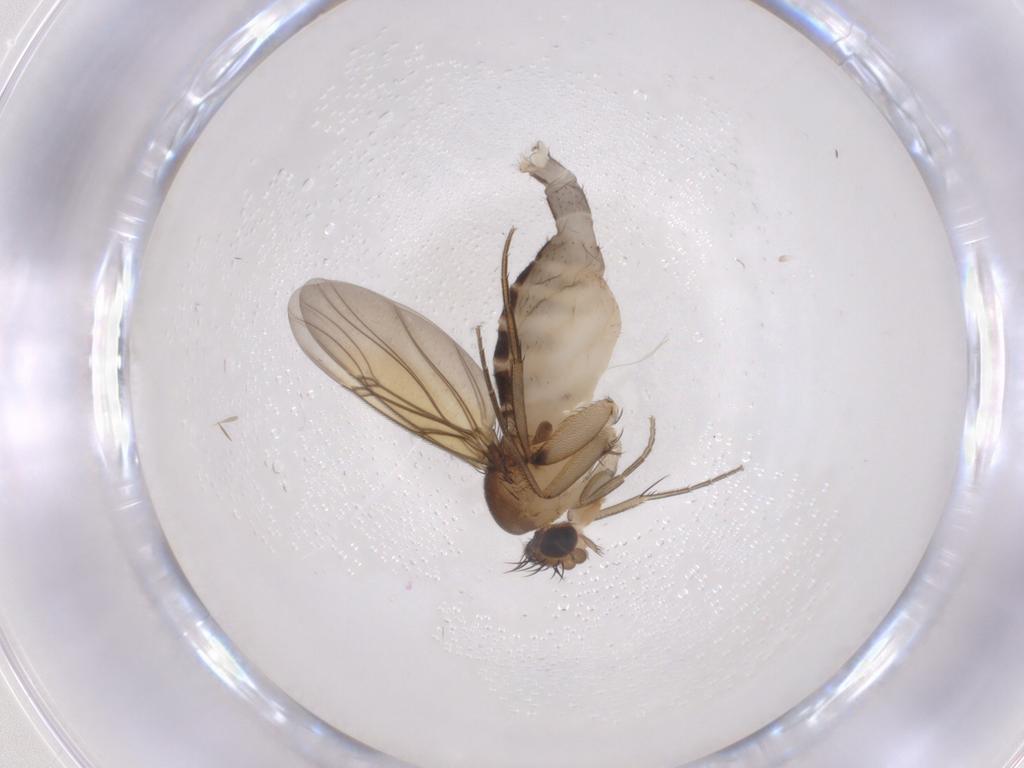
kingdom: Animalia
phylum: Arthropoda
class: Insecta
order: Diptera
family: Phoridae
